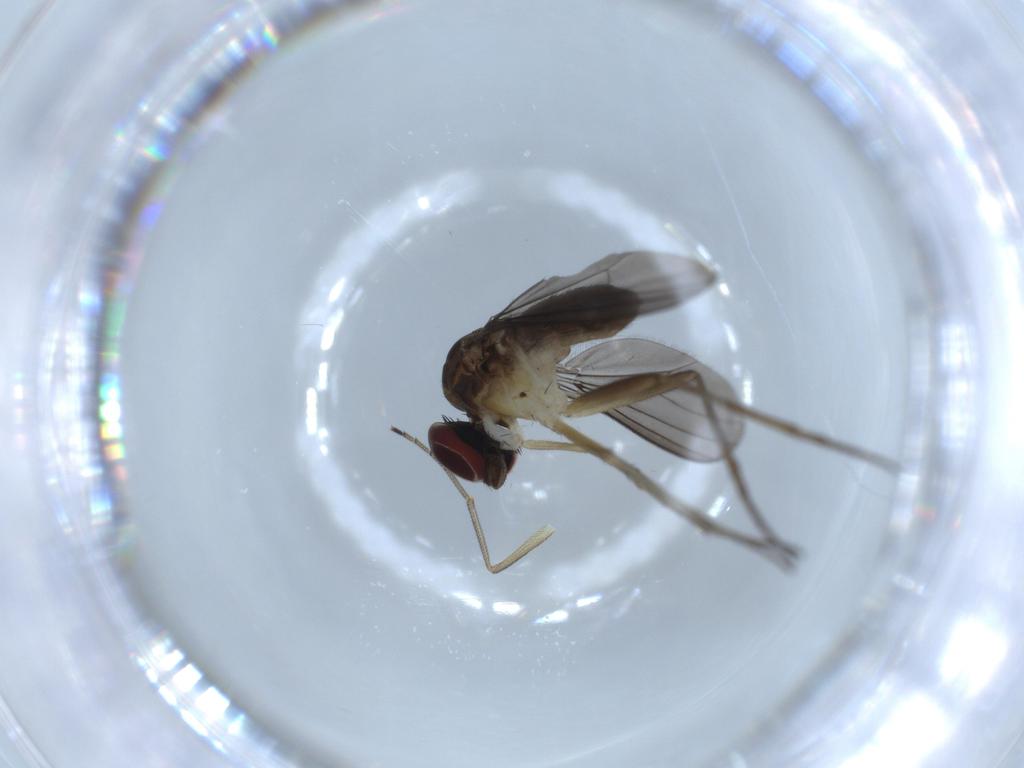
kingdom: Animalia
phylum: Arthropoda
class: Insecta
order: Diptera
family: Dolichopodidae
